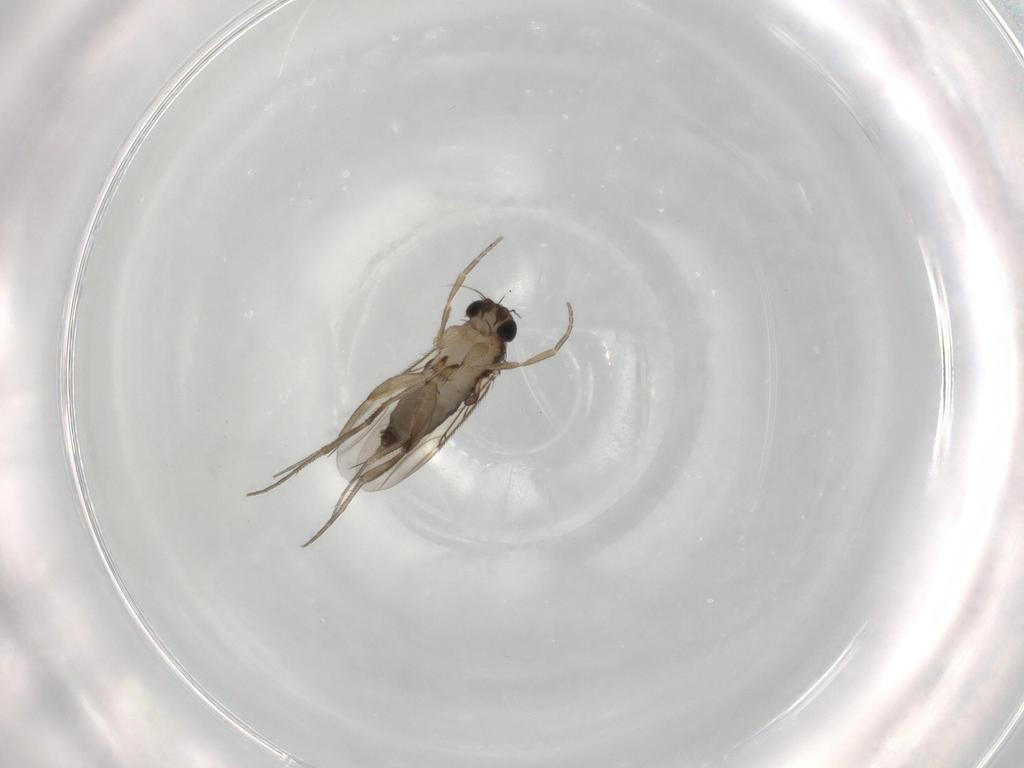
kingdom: Animalia
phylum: Arthropoda
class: Insecta
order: Diptera
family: Phoridae
